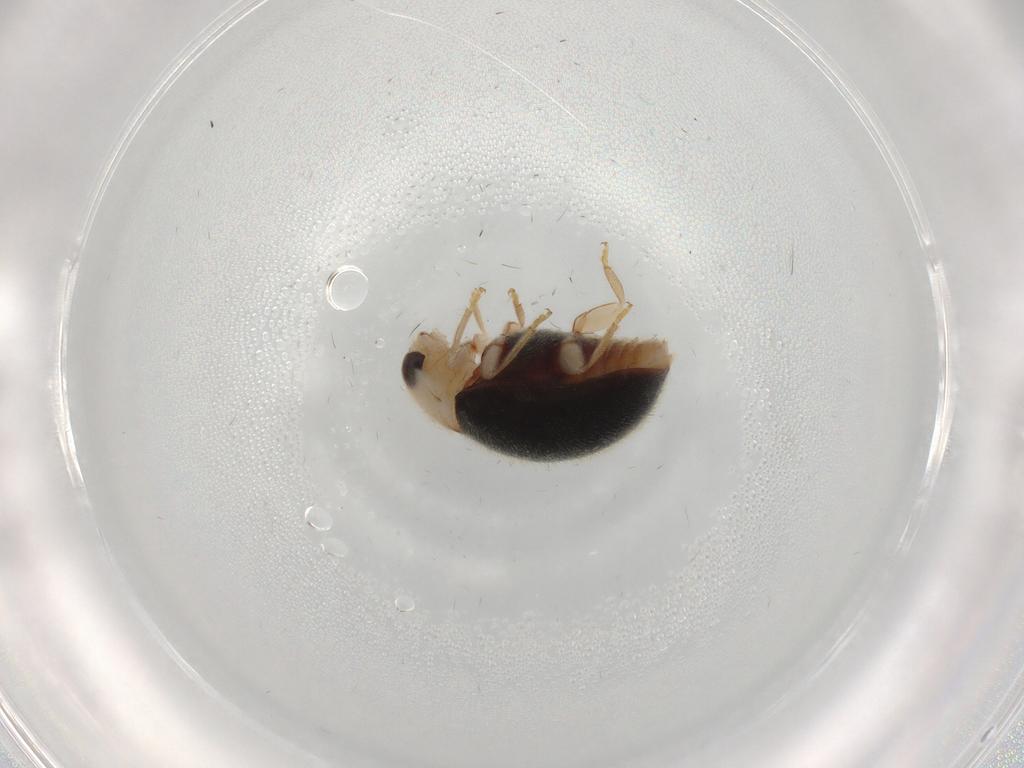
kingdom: Animalia
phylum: Arthropoda
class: Insecta
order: Coleoptera
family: Coccinellidae
